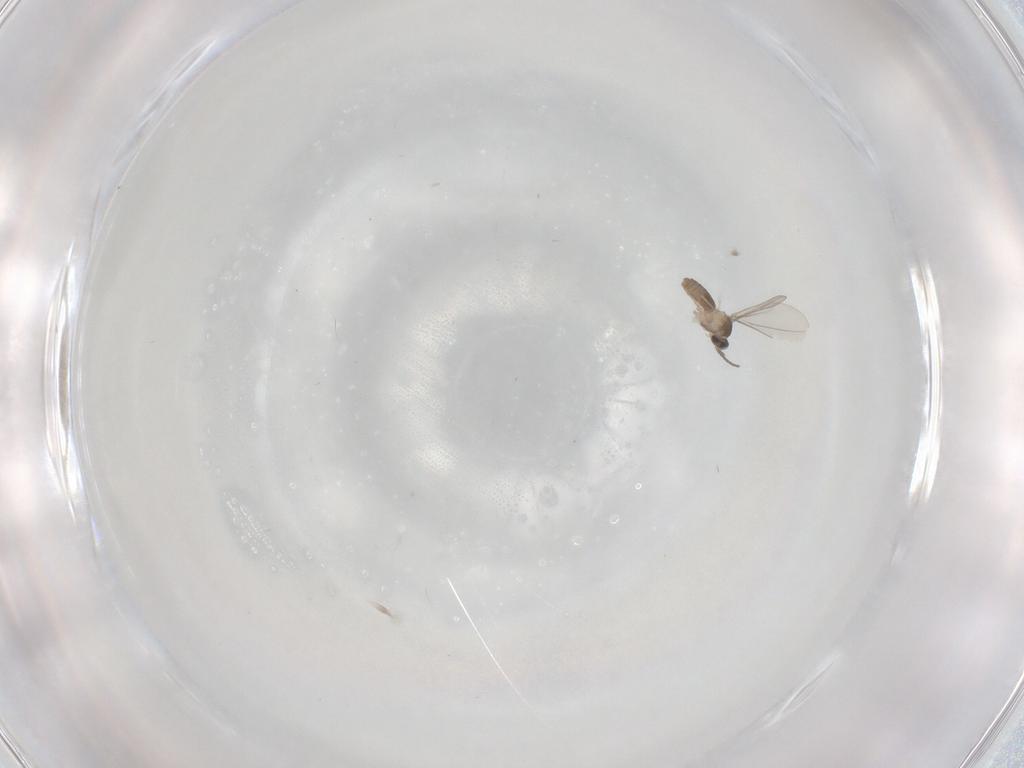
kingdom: Animalia
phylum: Arthropoda
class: Insecta
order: Diptera
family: Cecidomyiidae
